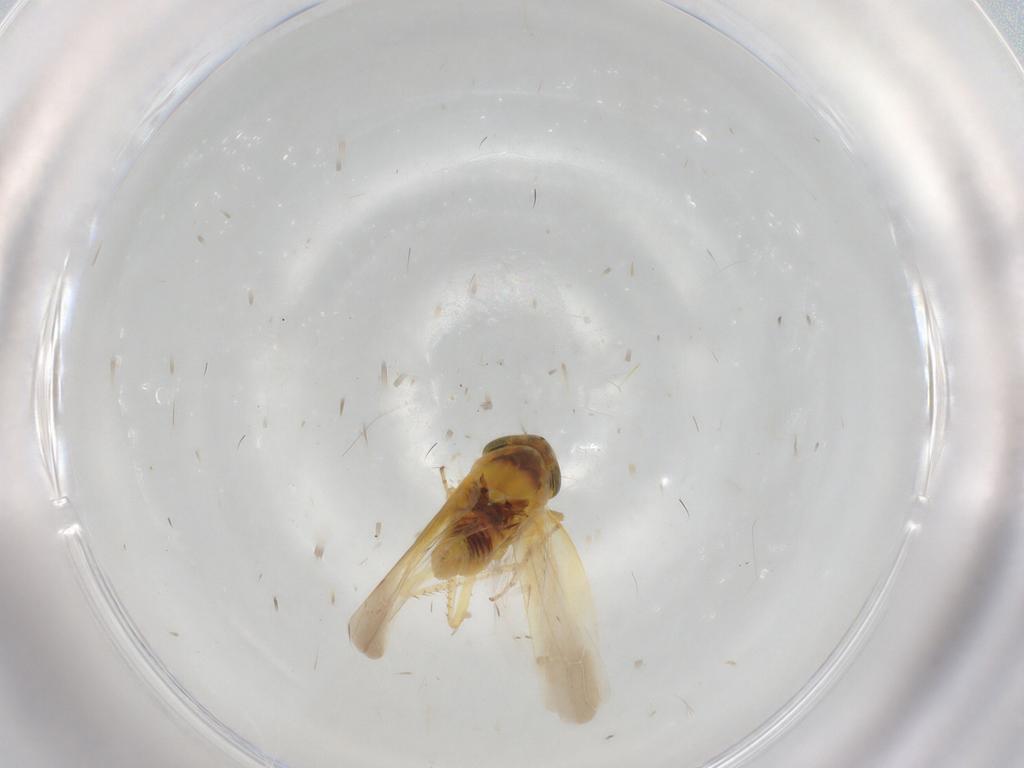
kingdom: Animalia
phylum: Arthropoda
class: Insecta
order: Hemiptera
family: Cicadellidae
